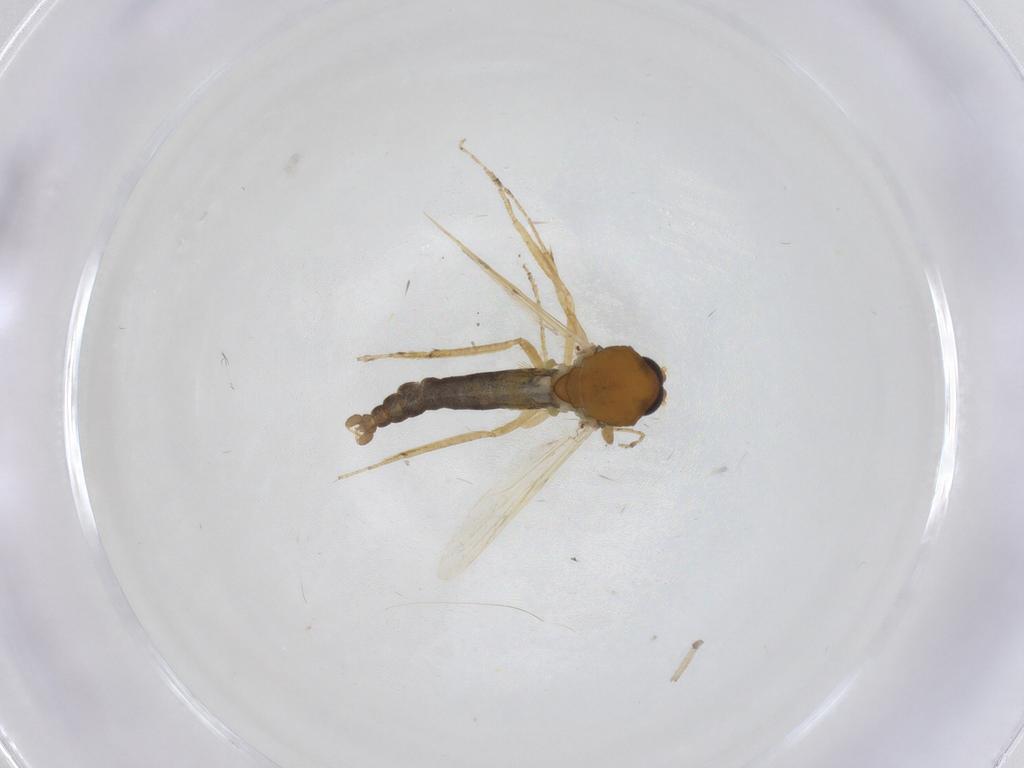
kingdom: Animalia
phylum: Arthropoda
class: Insecta
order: Diptera
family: Ceratopogonidae
